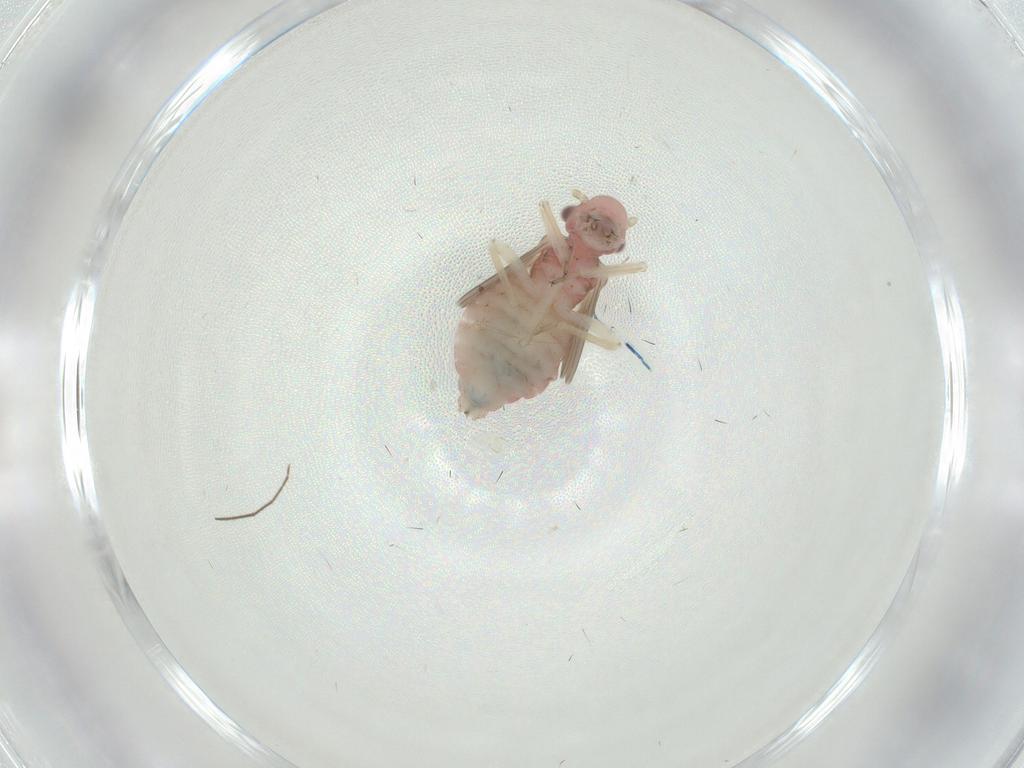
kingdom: Animalia
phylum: Arthropoda
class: Insecta
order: Psocodea
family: Caeciliusidae
